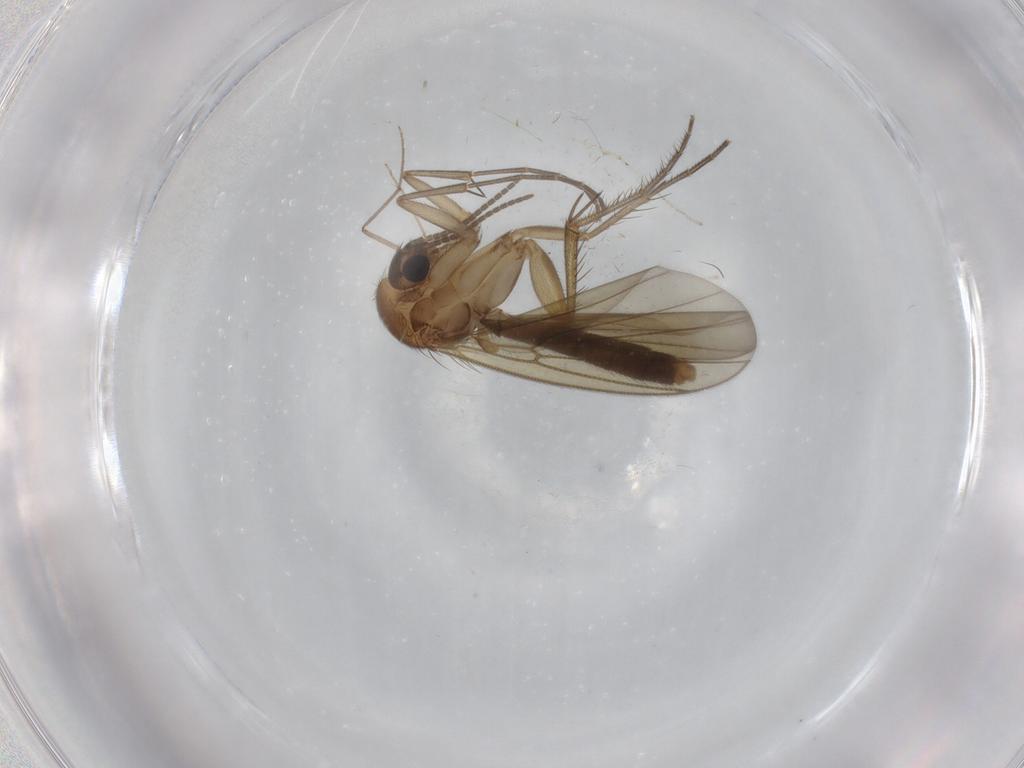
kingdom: Animalia
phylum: Arthropoda
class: Insecta
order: Diptera
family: Mycetophilidae
